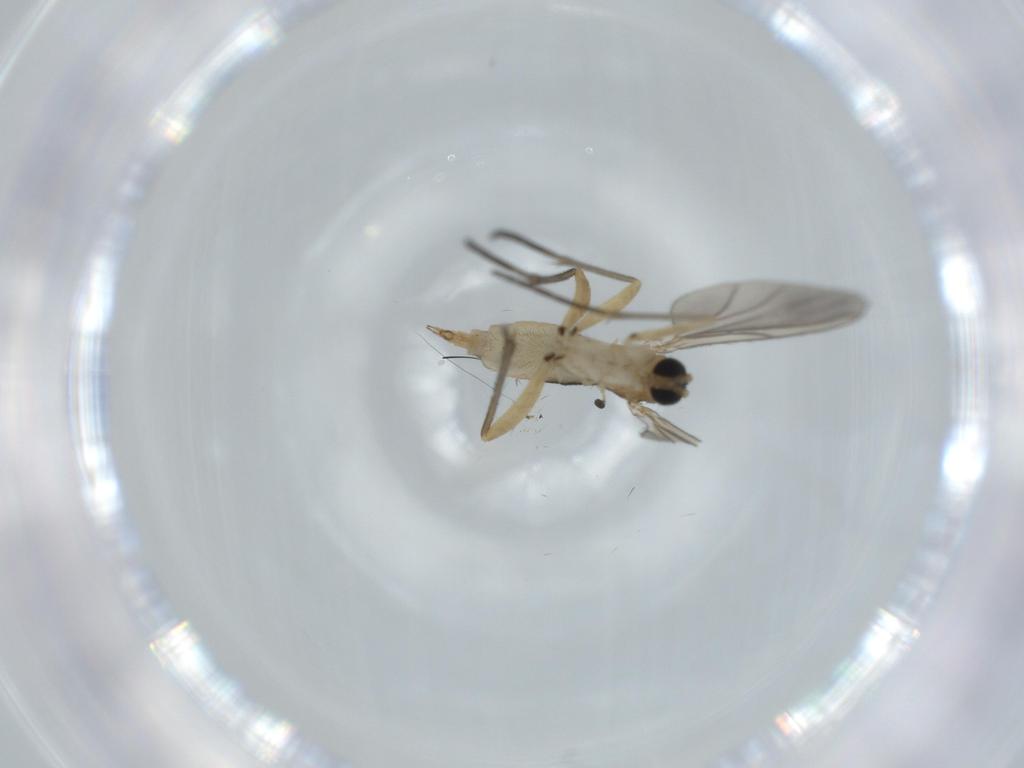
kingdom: Animalia
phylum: Arthropoda
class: Insecta
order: Diptera
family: Sciaridae
